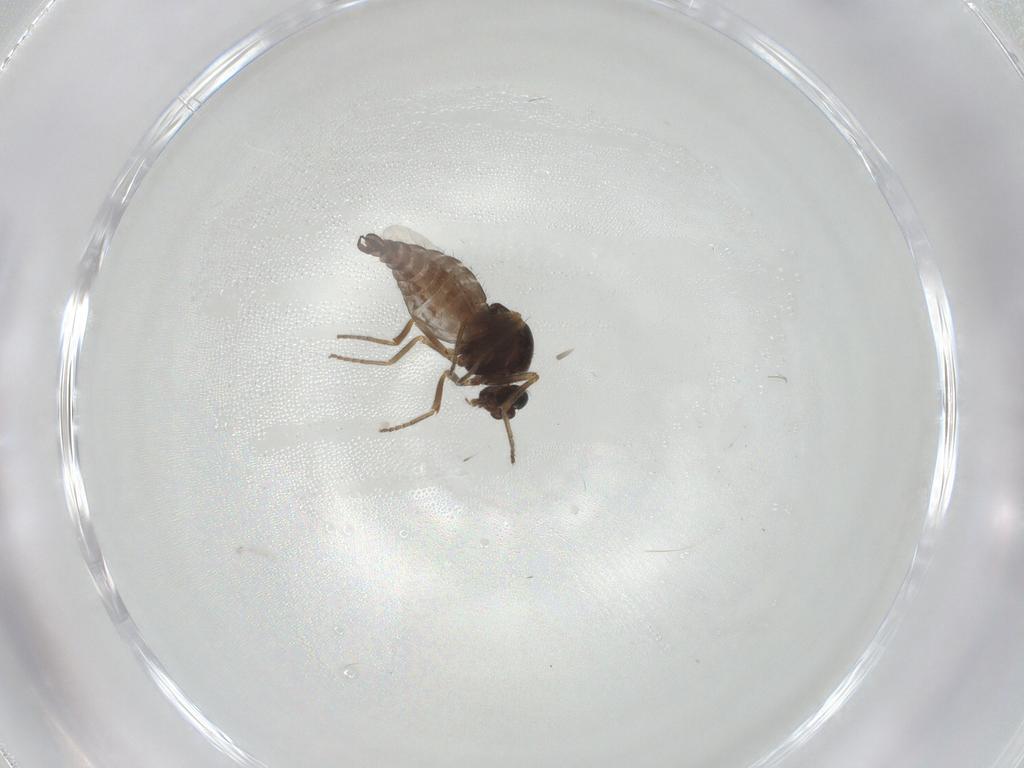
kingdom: Animalia
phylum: Arthropoda
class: Insecta
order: Diptera
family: Ceratopogonidae
